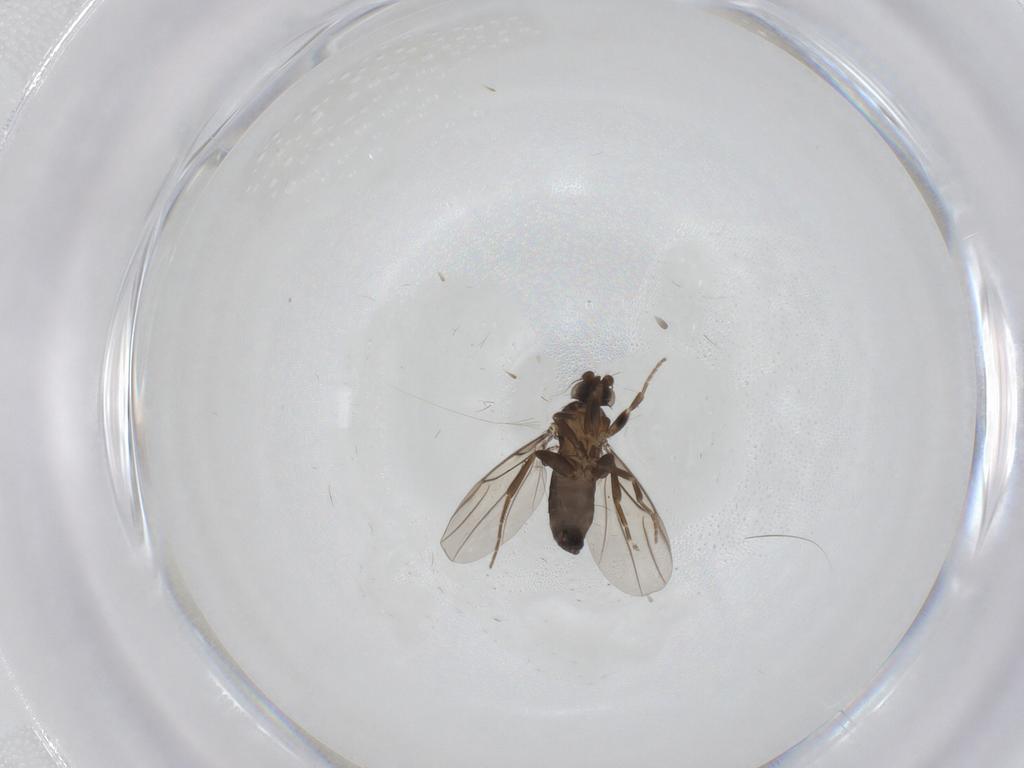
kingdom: Animalia
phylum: Arthropoda
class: Insecta
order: Diptera
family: Phoridae
